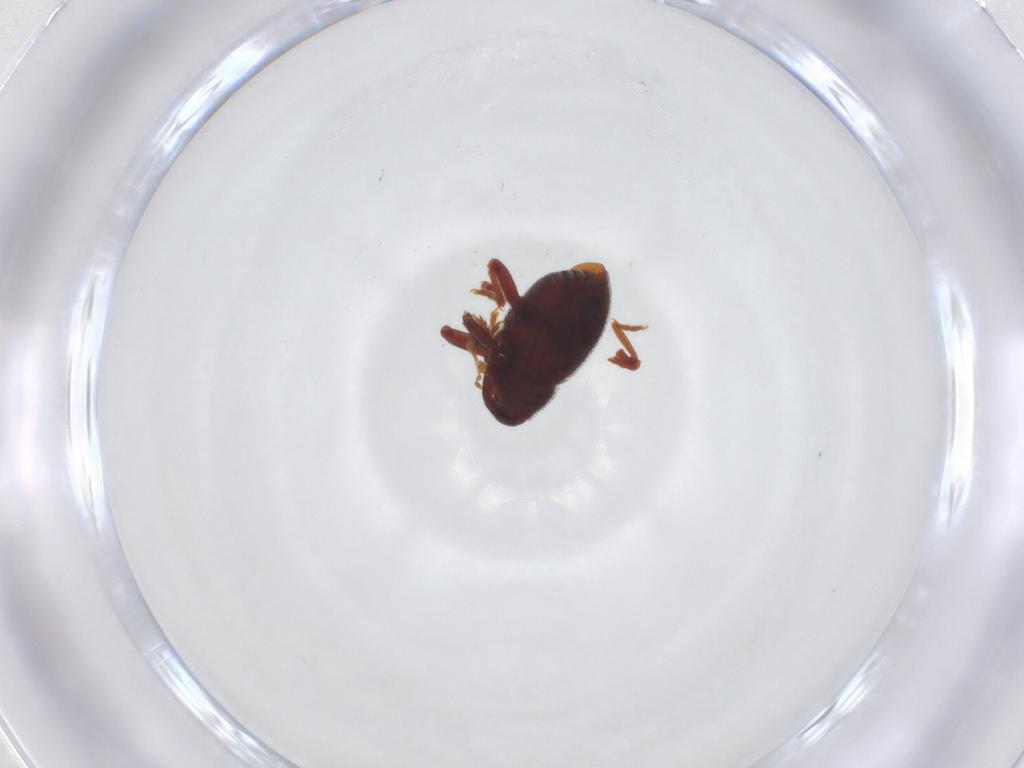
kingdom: Animalia
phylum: Arthropoda
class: Insecta
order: Coleoptera
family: Curculionidae
